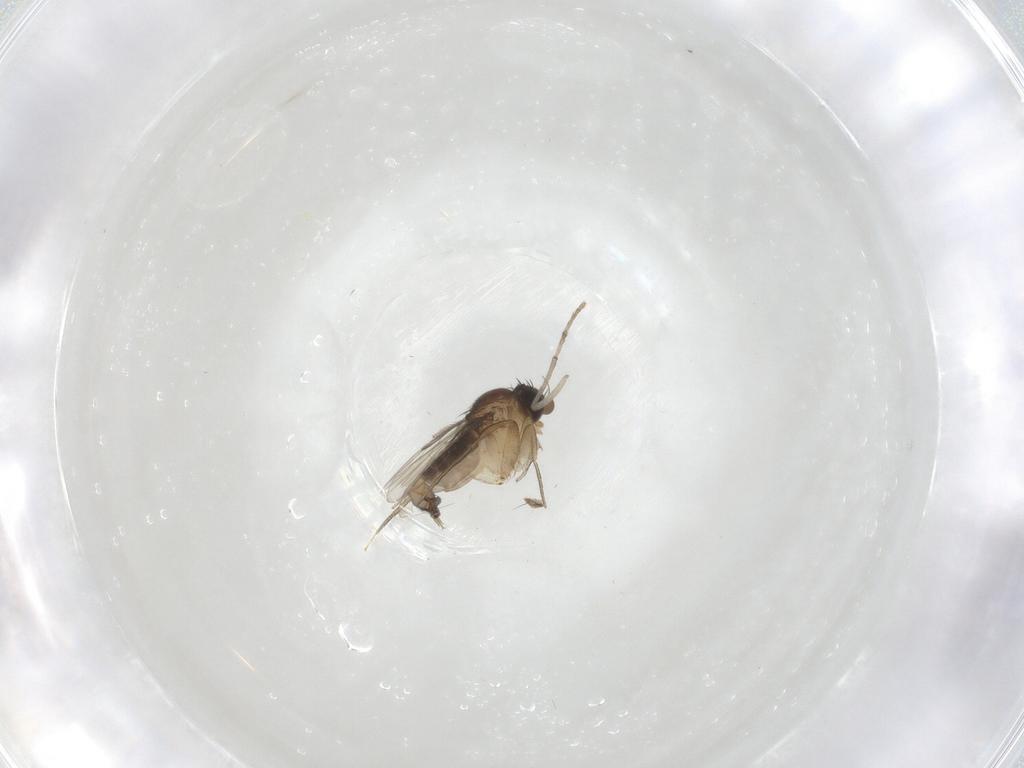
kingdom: Animalia
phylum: Arthropoda
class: Insecta
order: Diptera
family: Psychodidae
